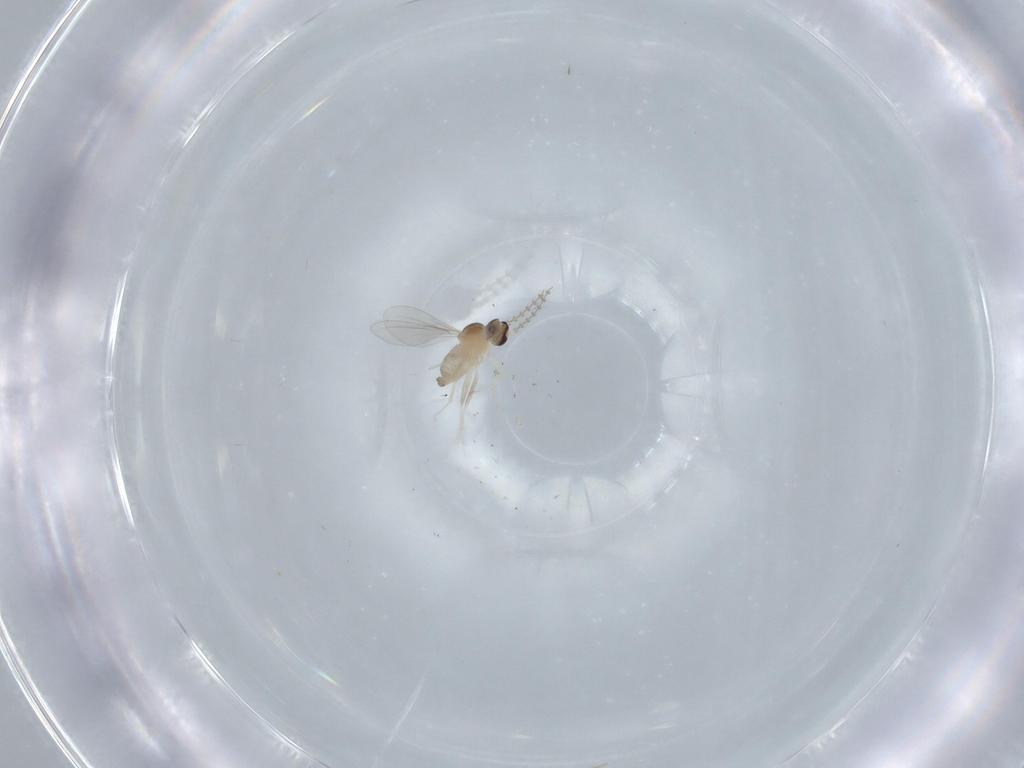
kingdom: Animalia
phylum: Arthropoda
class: Insecta
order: Diptera
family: Cecidomyiidae
